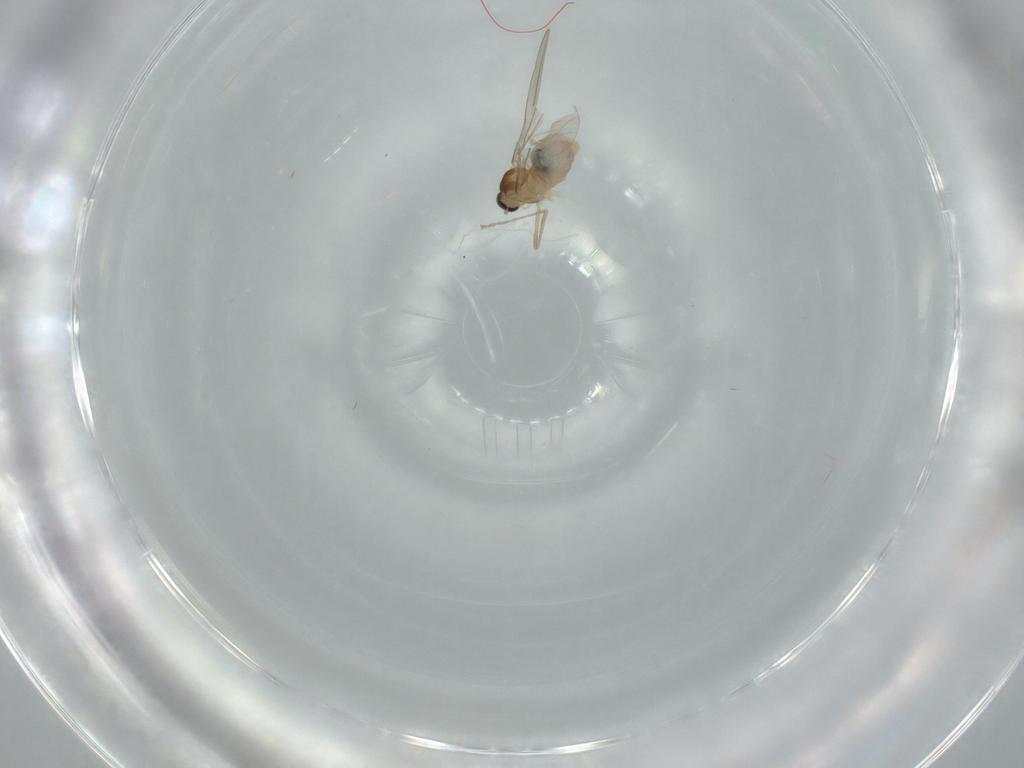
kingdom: Animalia
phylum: Arthropoda
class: Insecta
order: Diptera
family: Cecidomyiidae
